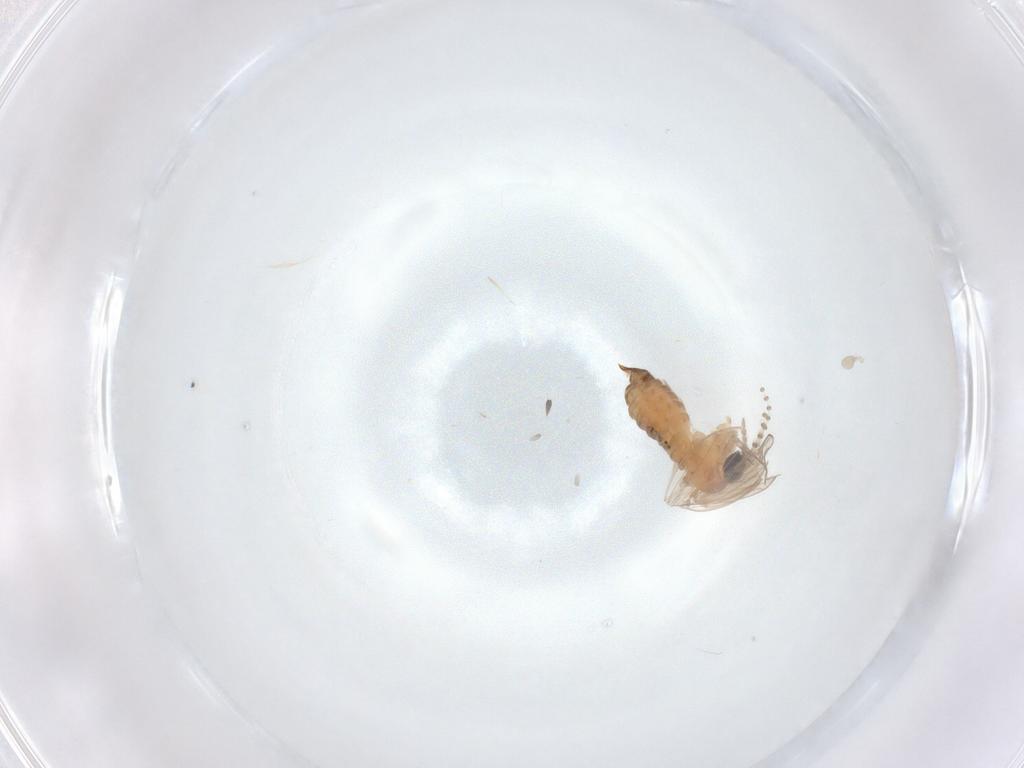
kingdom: Animalia
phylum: Arthropoda
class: Insecta
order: Diptera
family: Psychodidae
